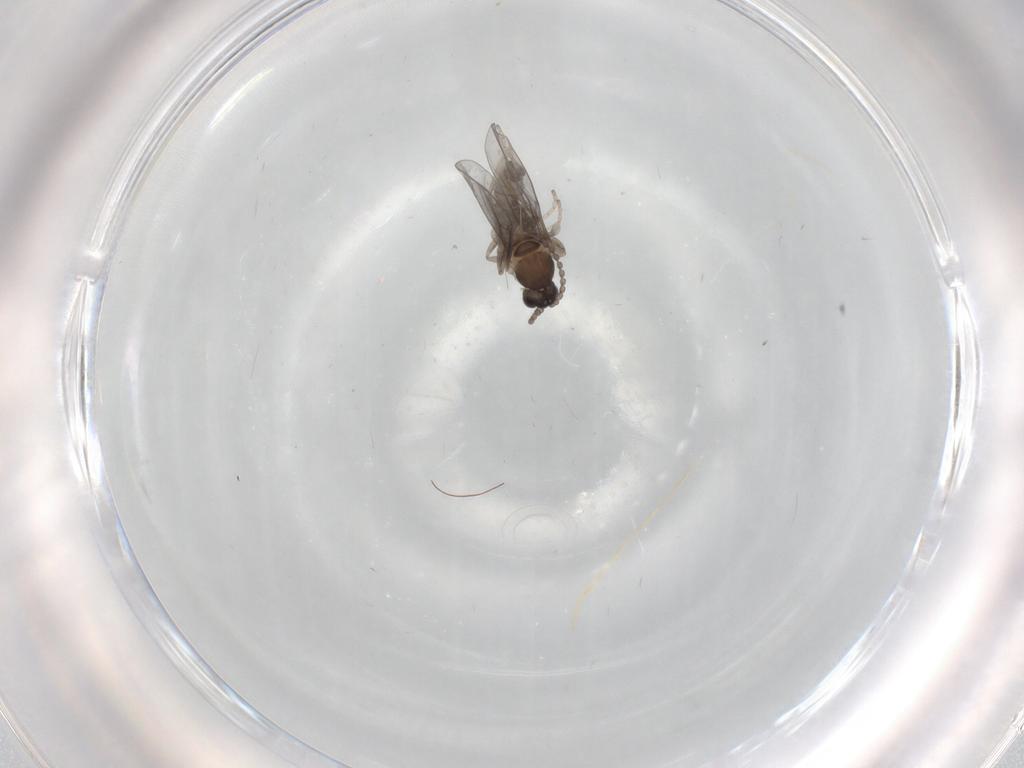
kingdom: Animalia
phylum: Arthropoda
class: Insecta
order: Diptera
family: Cecidomyiidae
